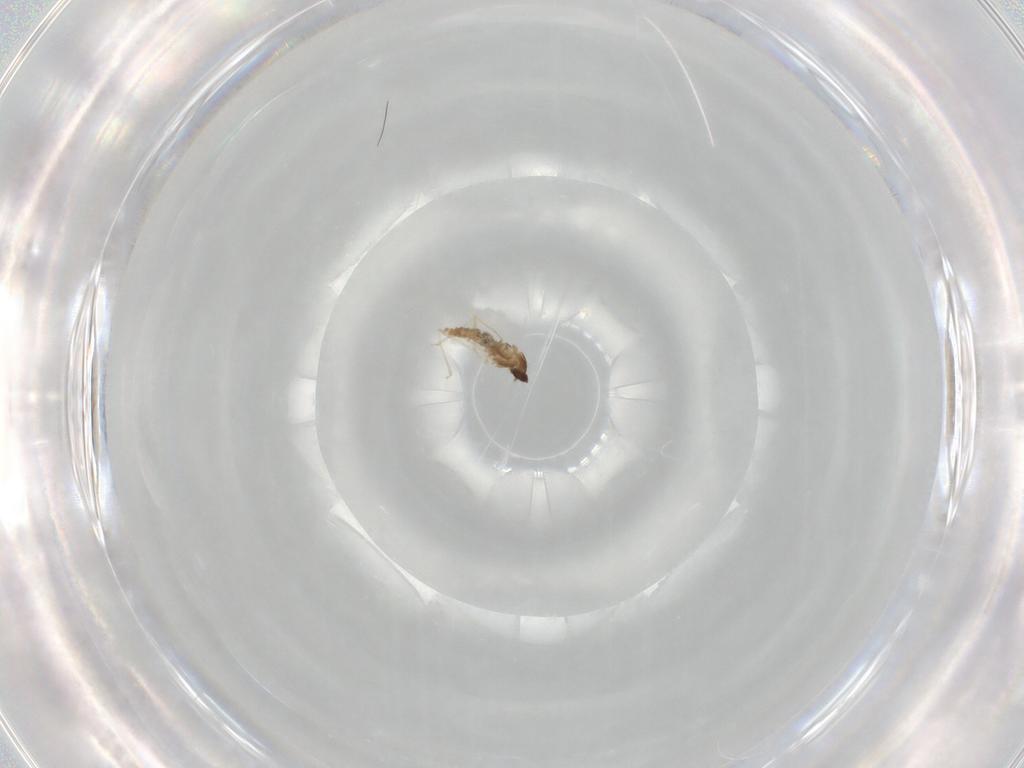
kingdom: Animalia
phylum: Arthropoda
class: Insecta
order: Diptera
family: Cecidomyiidae
